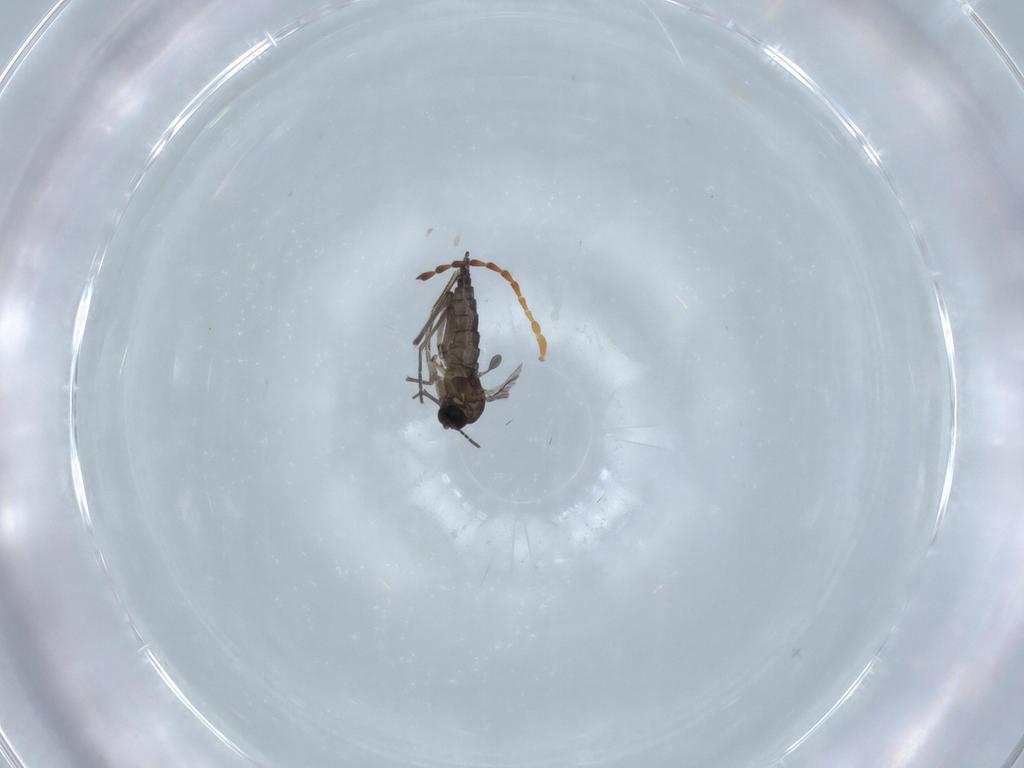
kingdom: Animalia
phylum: Arthropoda
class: Insecta
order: Diptera
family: Sciaridae
